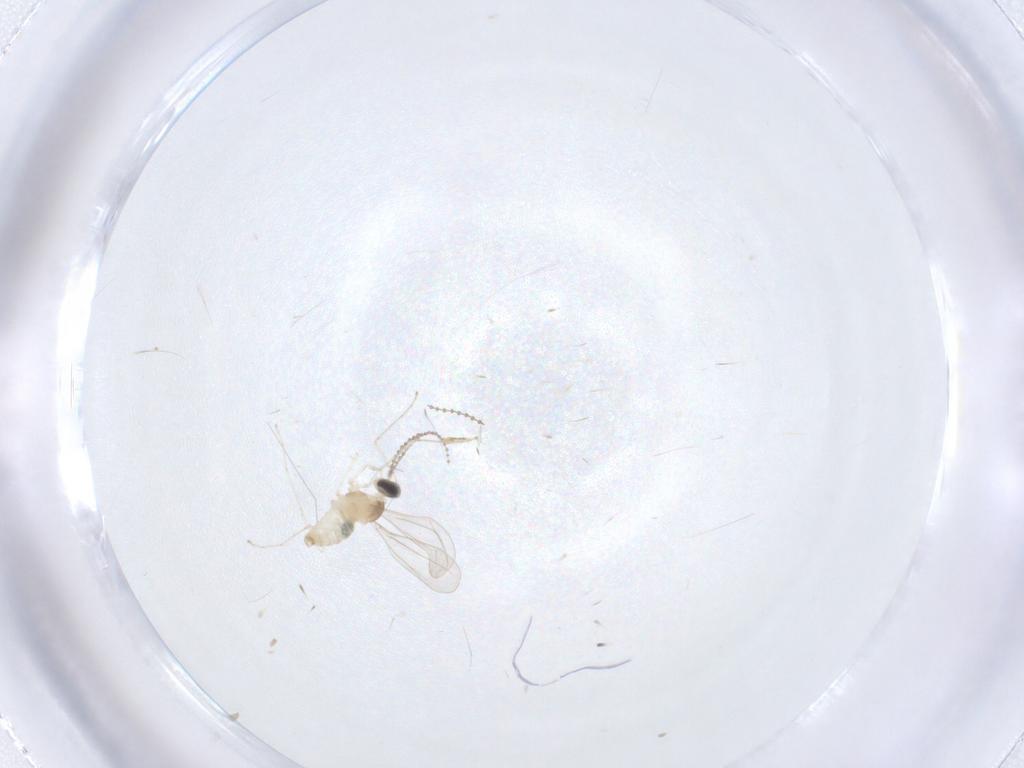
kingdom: Animalia
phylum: Arthropoda
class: Insecta
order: Diptera
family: Cecidomyiidae
